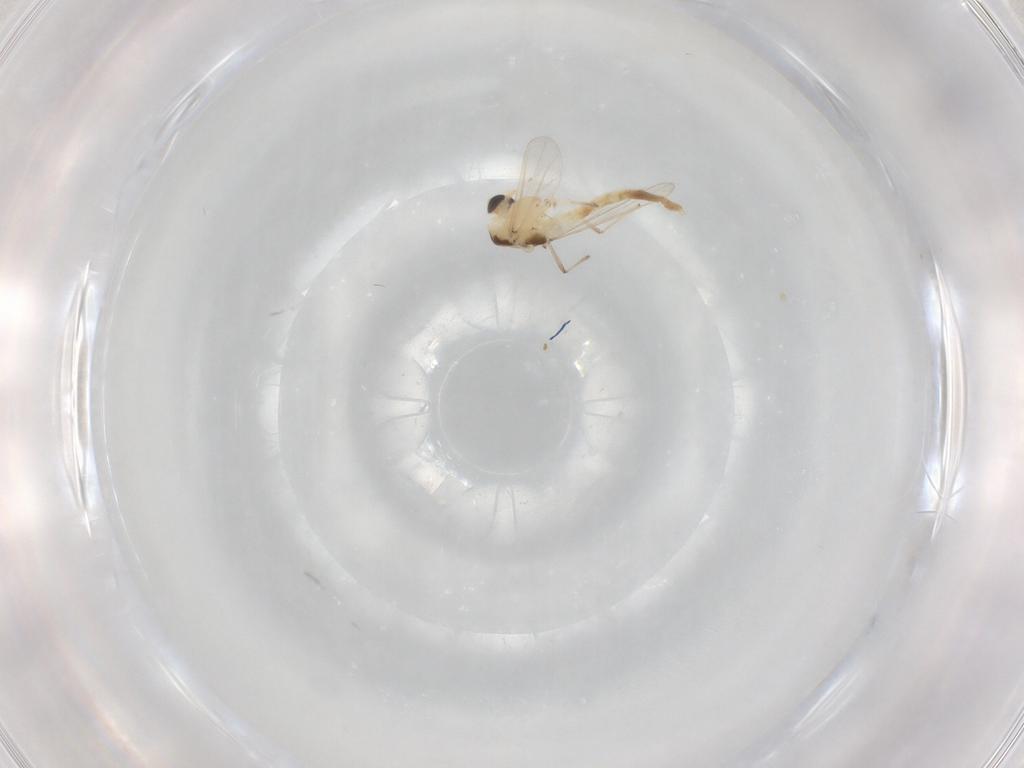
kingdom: Animalia
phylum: Arthropoda
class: Insecta
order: Diptera
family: Chironomidae
